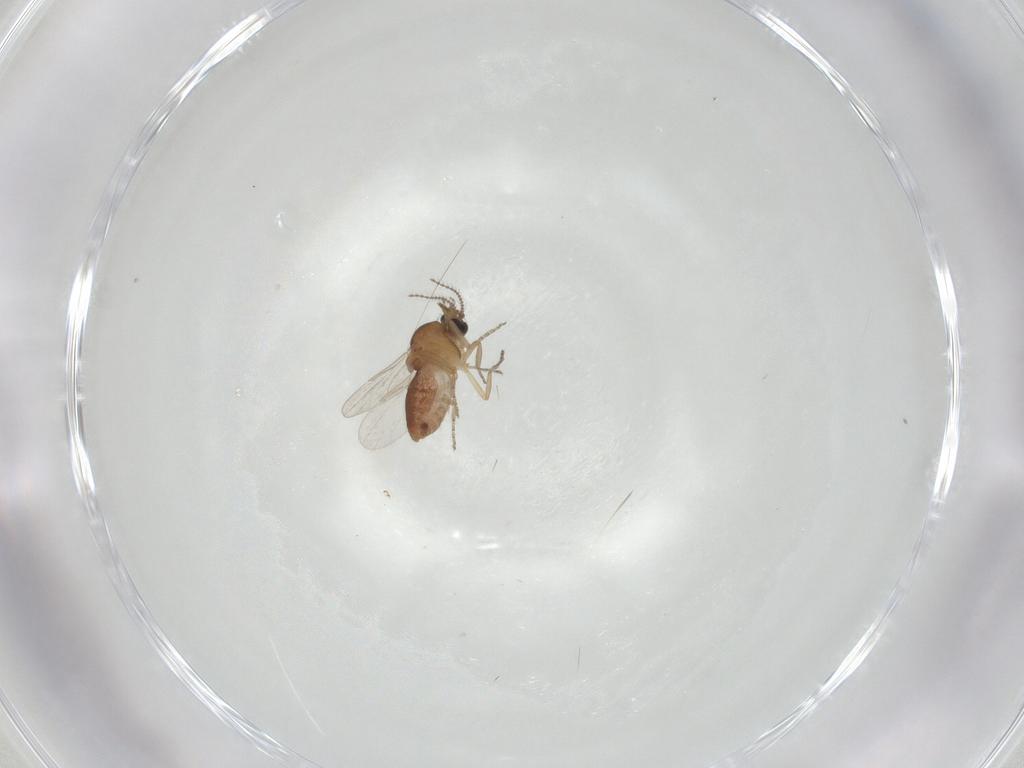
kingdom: Animalia
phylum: Arthropoda
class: Insecta
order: Diptera
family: Ceratopogonidae
